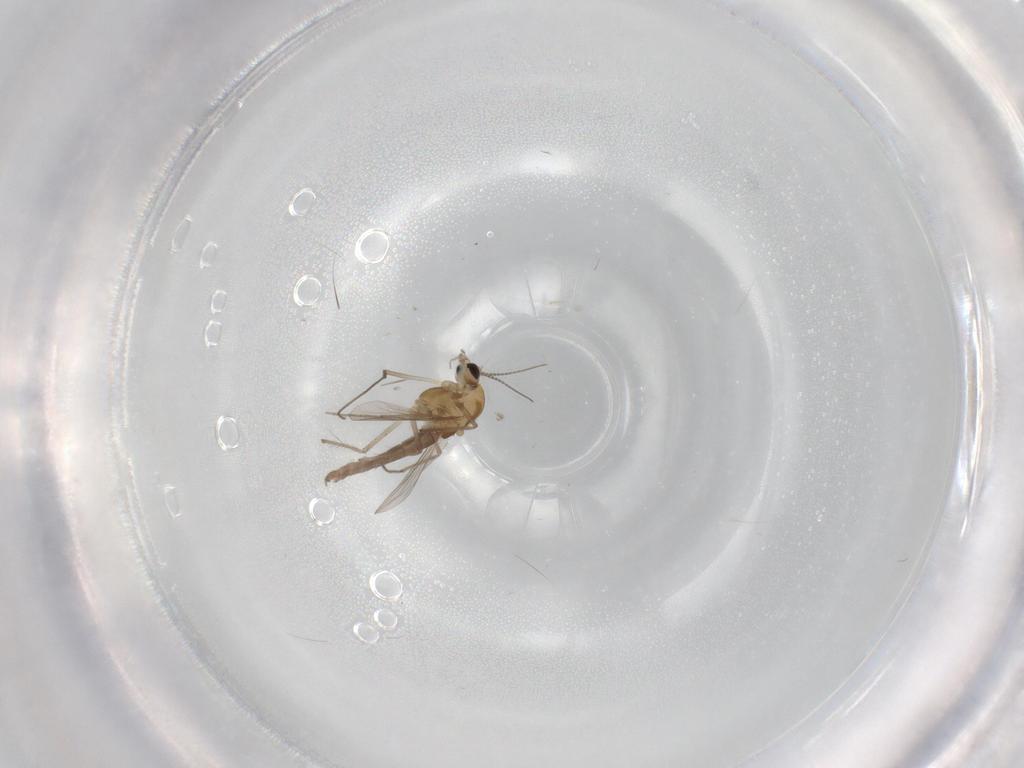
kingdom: Animalia
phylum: Arthropoda
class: Insecta
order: Diptera
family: Chironomidae
